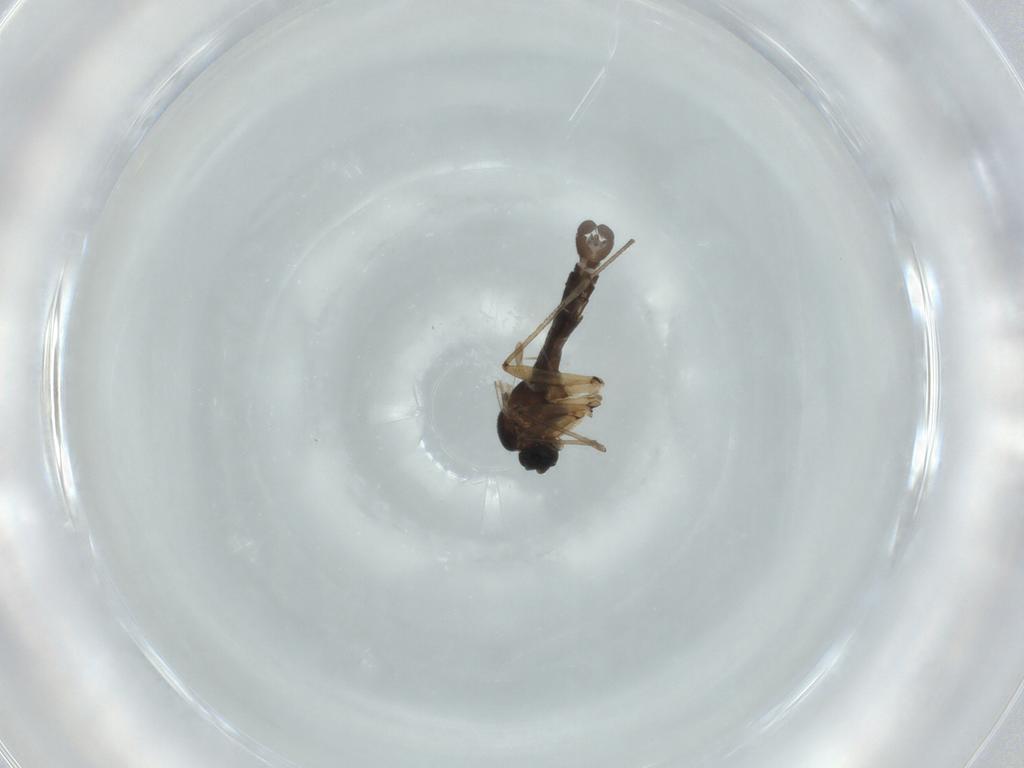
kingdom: Animalia
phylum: Arthropoda
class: Insecta
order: Diptera
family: Sciaridae
